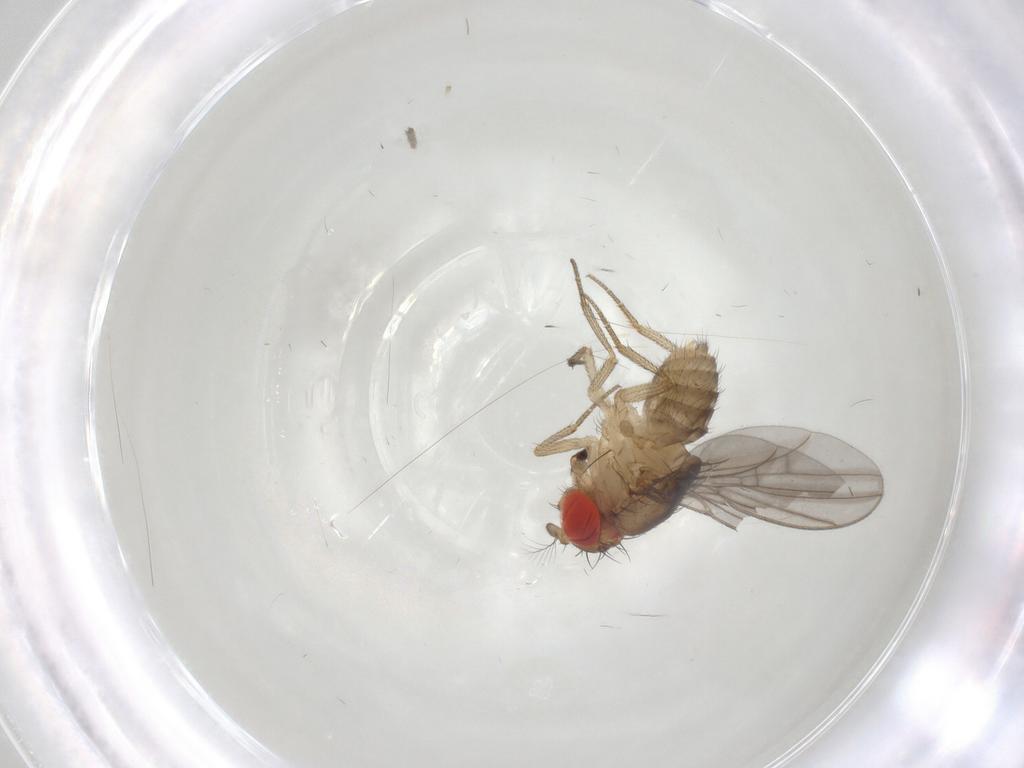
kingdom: Animalia
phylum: Arthropoda
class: Insecta
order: Diptera
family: Drosophilidae
